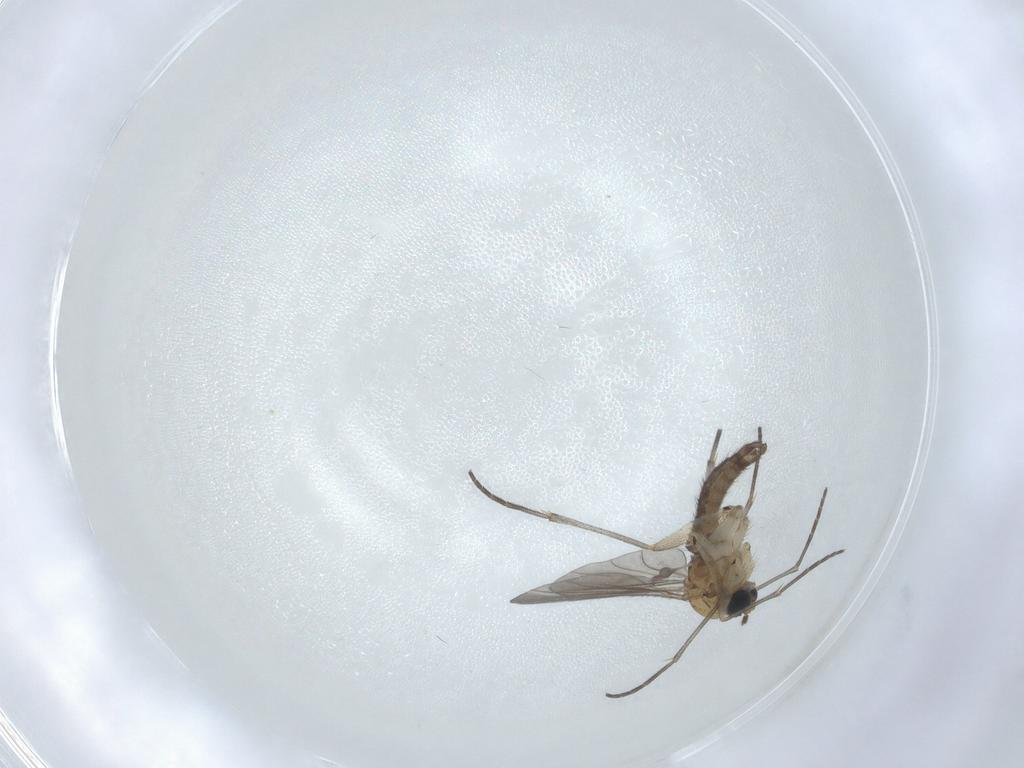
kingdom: Animalia
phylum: Arthropoda
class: Insecta
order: Diptera
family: Sciaridae
